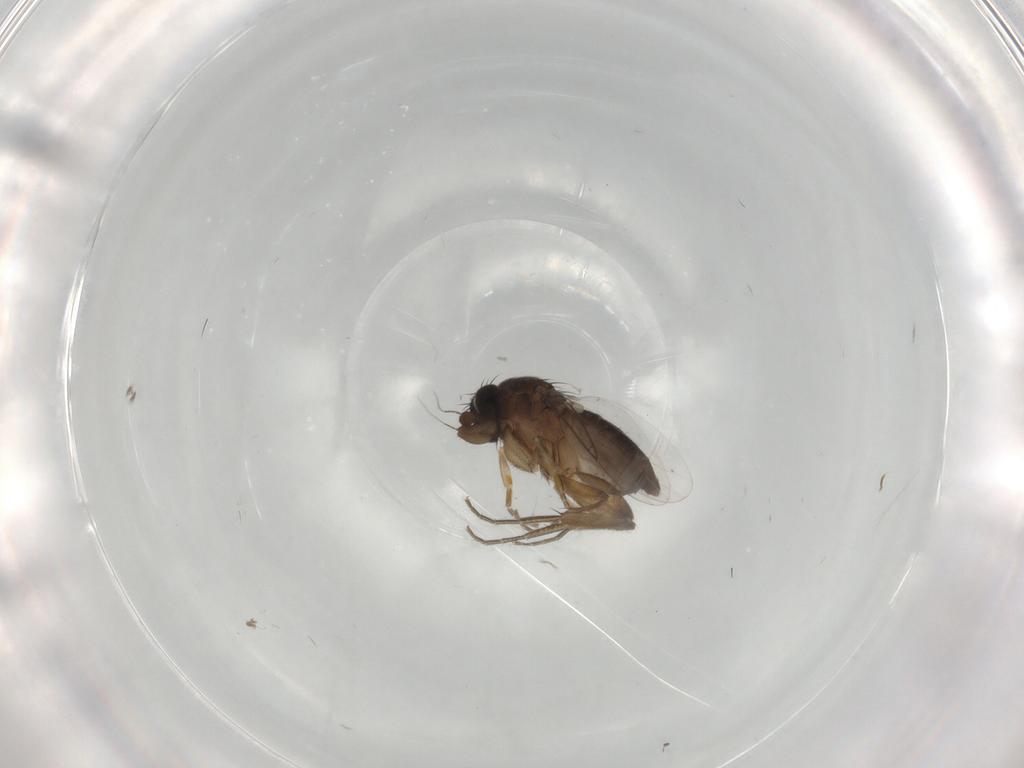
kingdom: Animalia
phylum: Arthropoda
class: Insecta
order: Diptera
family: Phoridae
